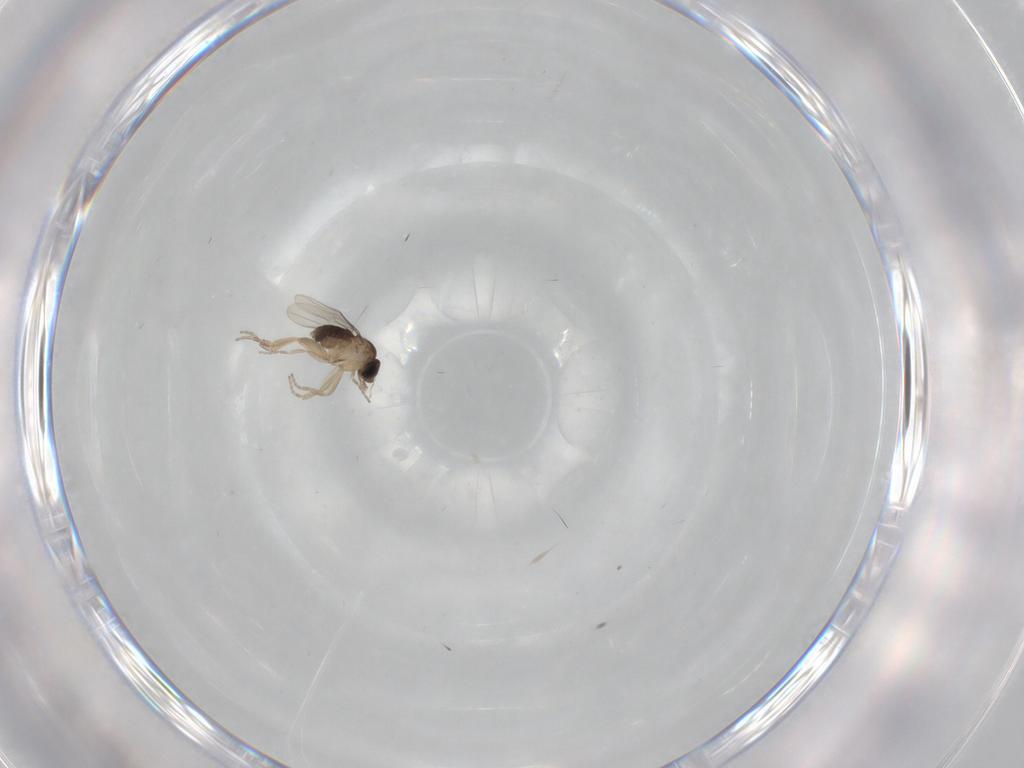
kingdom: Animalia
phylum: Arthropoda
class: Insecta
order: Diptera
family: Phoridae
